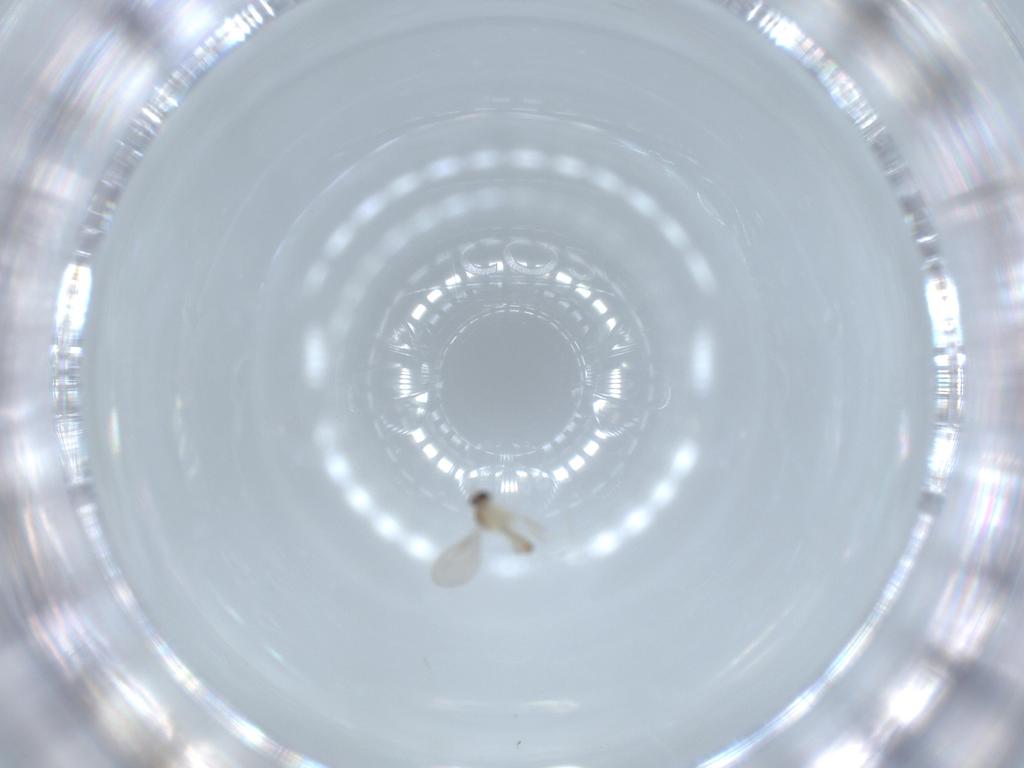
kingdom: Animalia
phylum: Arthropoda
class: Insecta
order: Diptera
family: Cecidomyiidae
